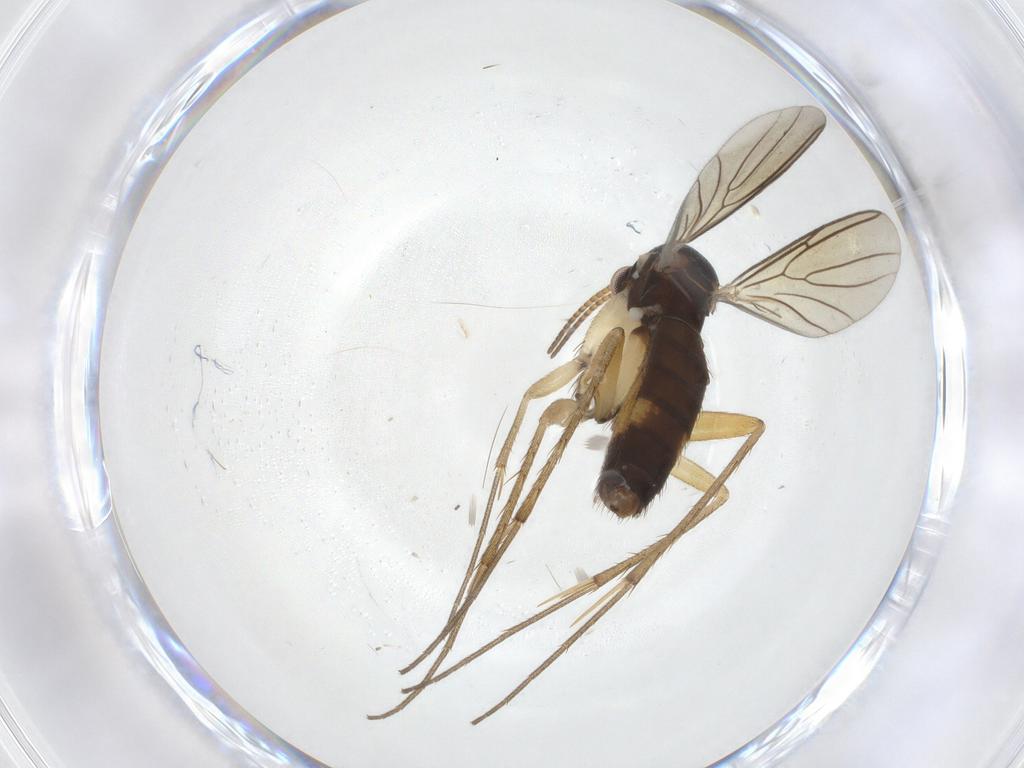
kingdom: Animalia
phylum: Arthropoda
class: Insecta
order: Diptera
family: Mycetophilidae
